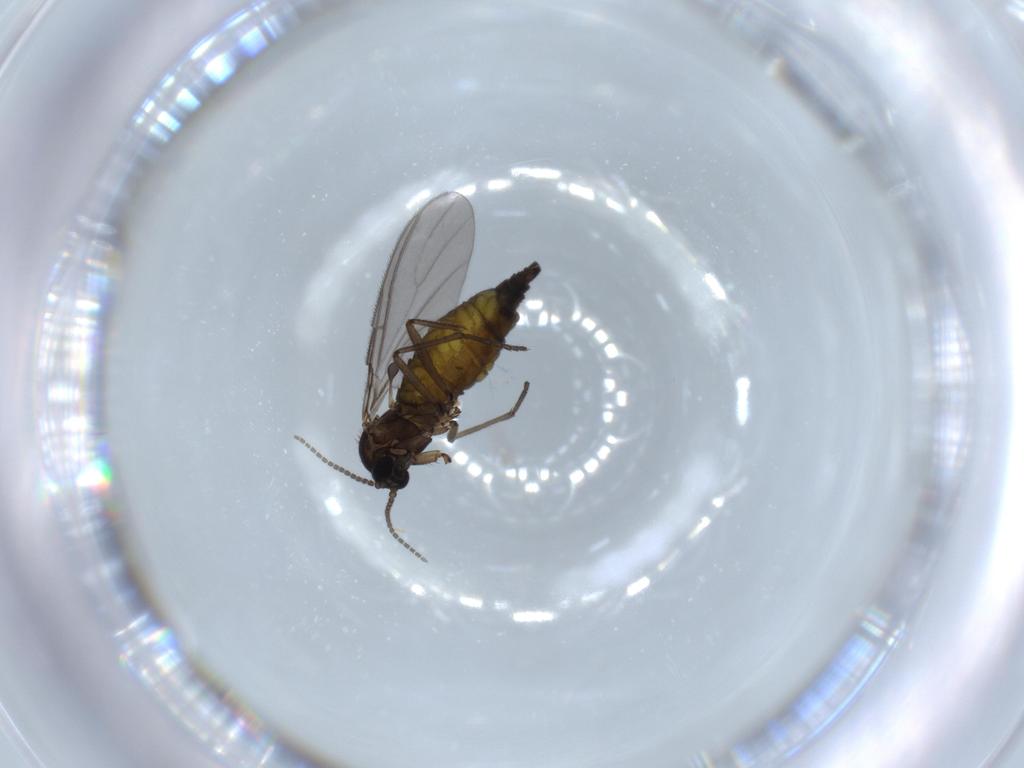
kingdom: Animalia
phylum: Arthropoda
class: Insecta
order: Diptera
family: Sciaridae
